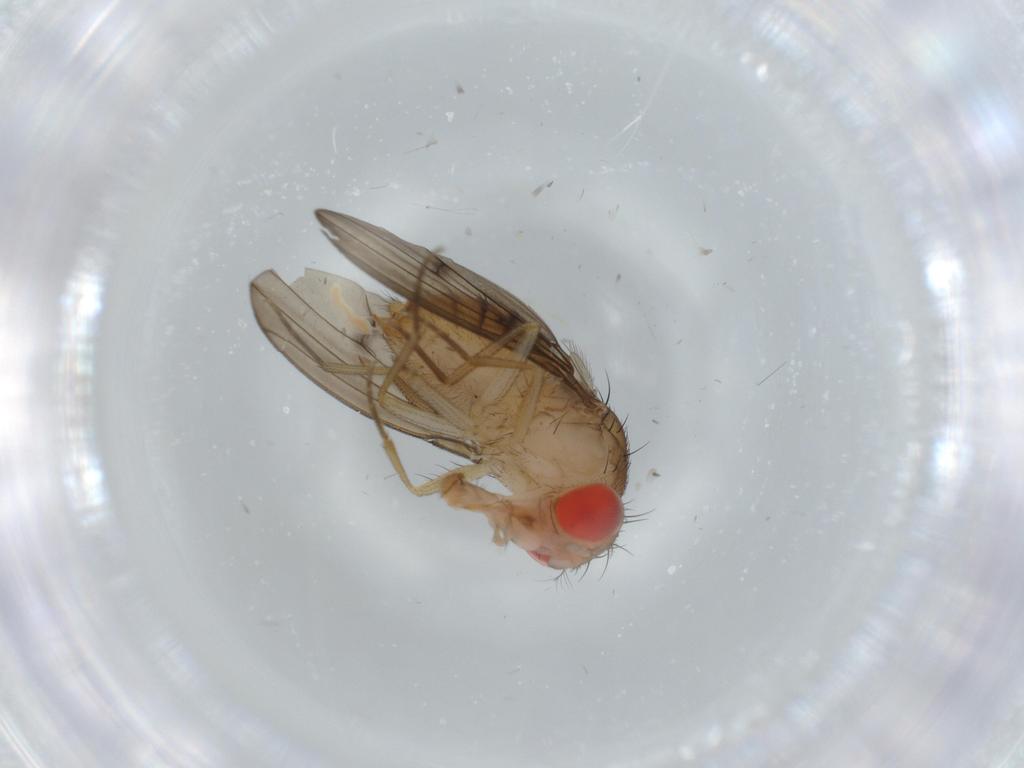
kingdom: Animalia
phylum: Arthropoda
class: Insecta
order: Diptera
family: Drosophilidae
